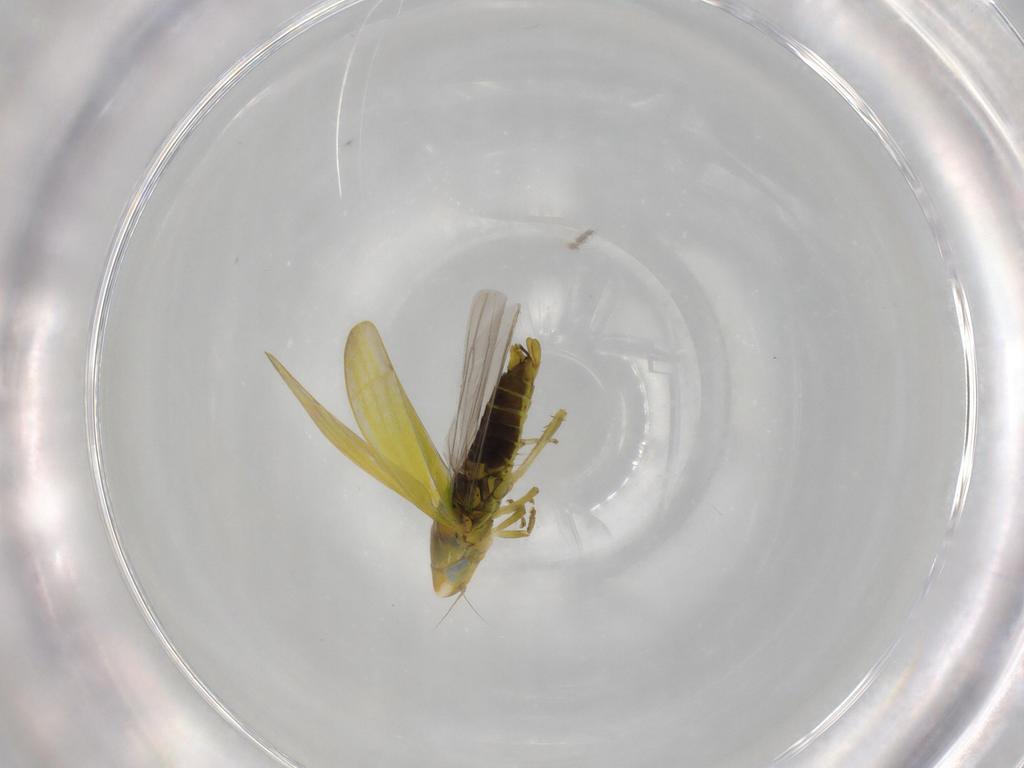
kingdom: Animalia
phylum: Arthropoda
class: Insecta
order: Hemiptera
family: Cicadellidae
